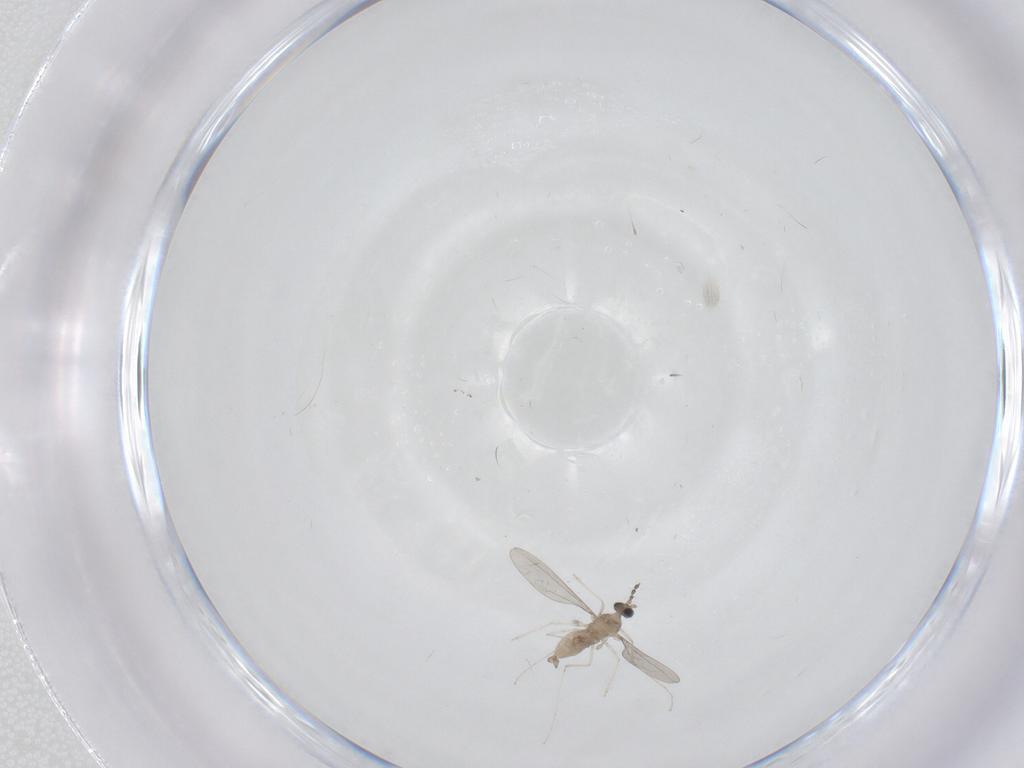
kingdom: Animalia
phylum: Arthropoda
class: Insecta
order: Diptera
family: Cecidomyiidae
